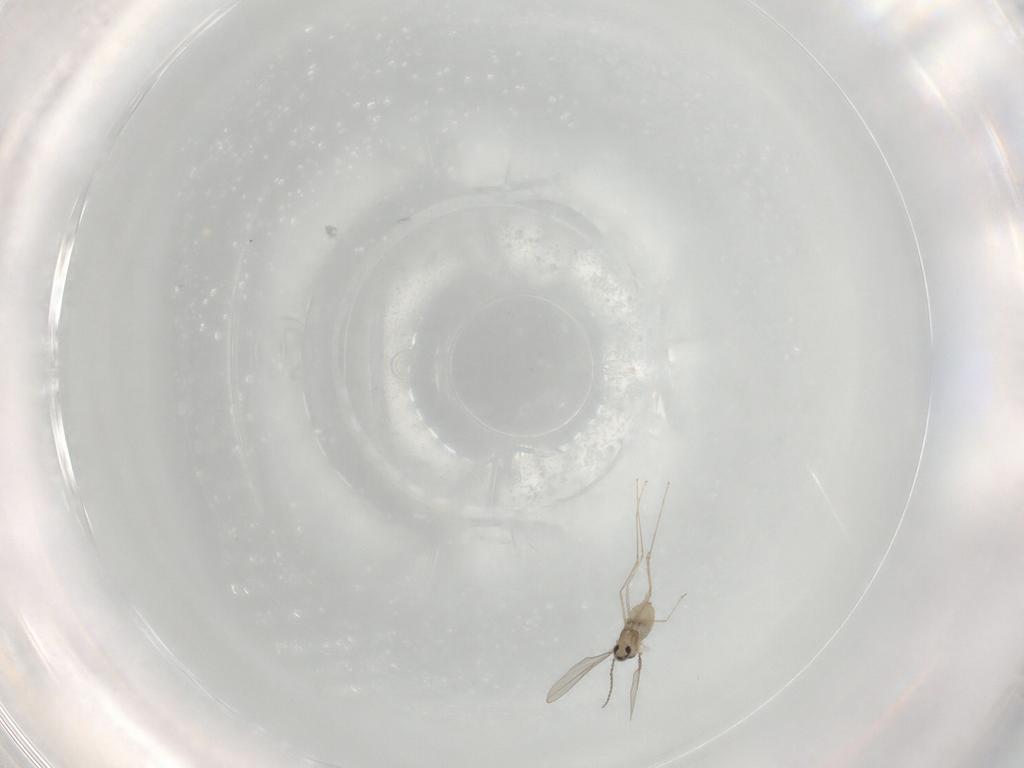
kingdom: Animalia
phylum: Arthropoda
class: Insecta
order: Diptera
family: Cecidomyiidae
